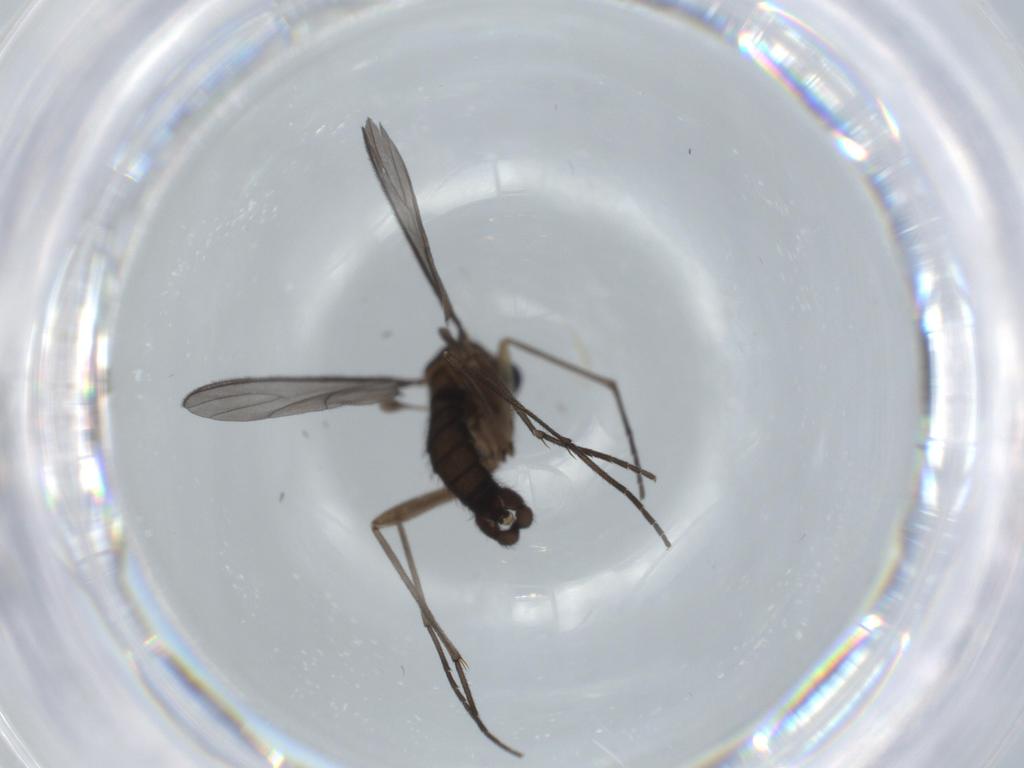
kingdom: Animalia
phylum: Arthropoda
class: Insecta
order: Diptera
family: Sciaridae
